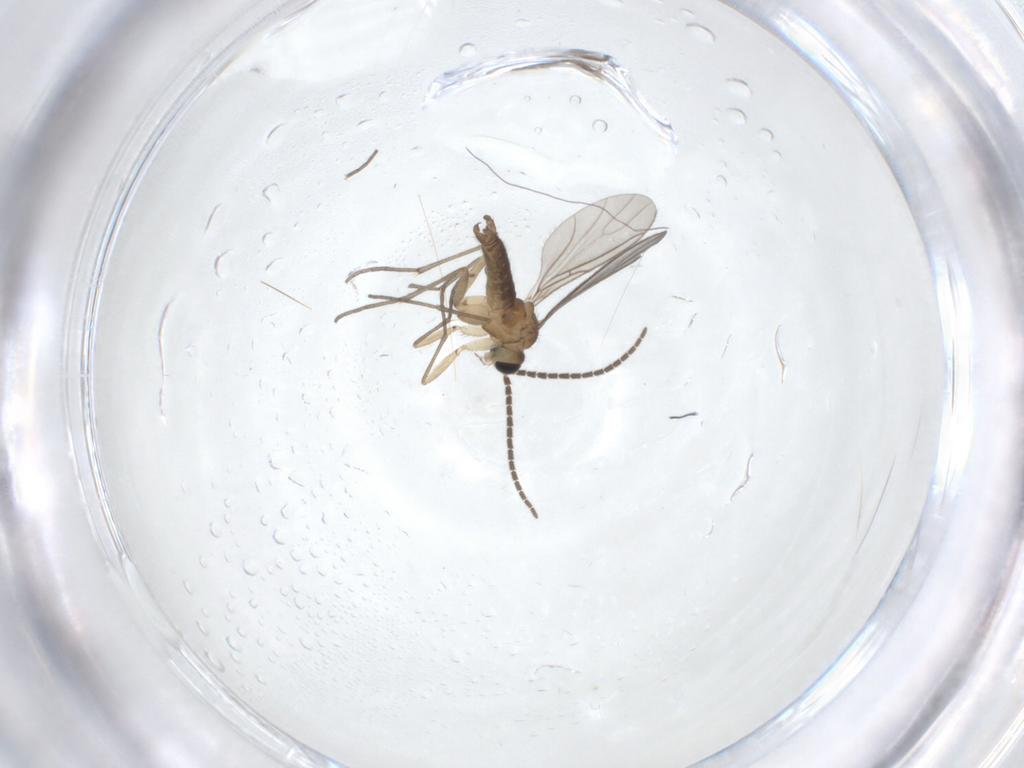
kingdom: Animalia
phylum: Arthropoda
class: Insecta
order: Diptera
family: Sciaridae
